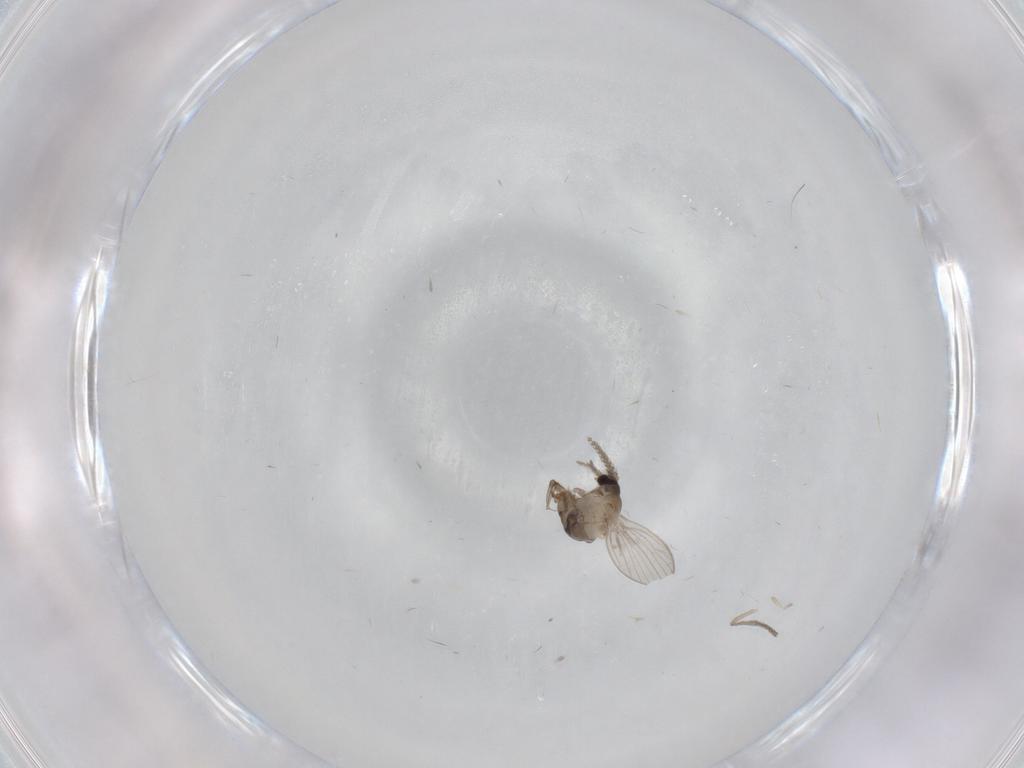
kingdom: Animalia
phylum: Arthropoda
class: Insecta
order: Diptera
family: Psychodidae
